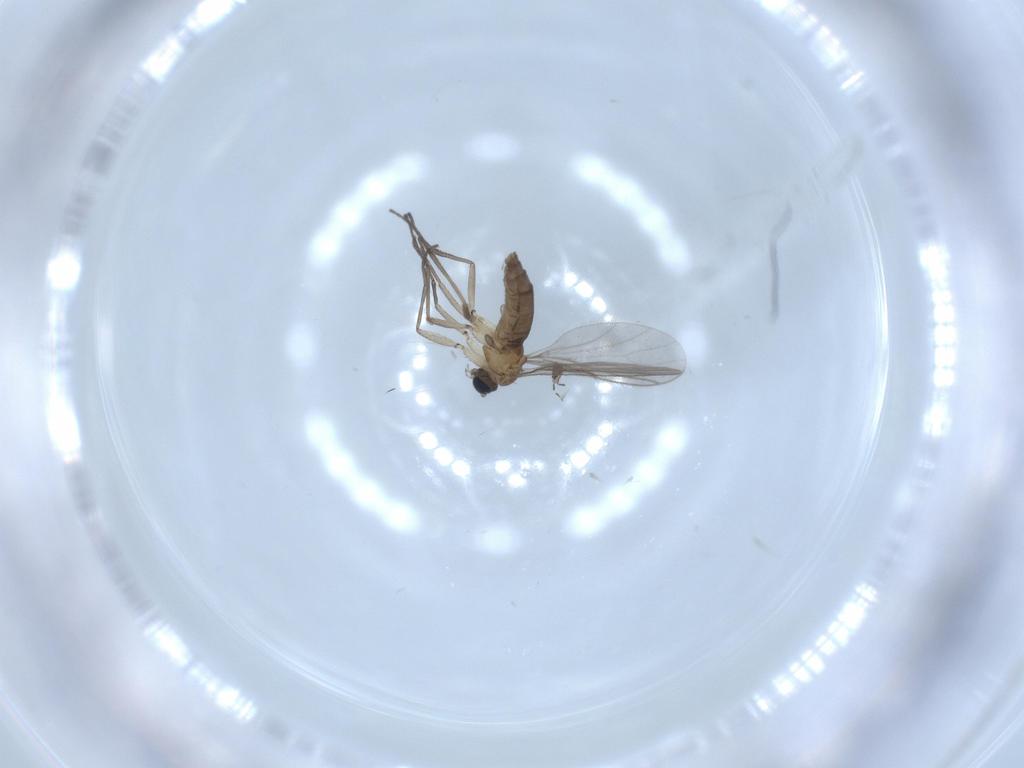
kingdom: Animalia
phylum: Arthropoda
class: Insecta
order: Diptera
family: Sciaridae
